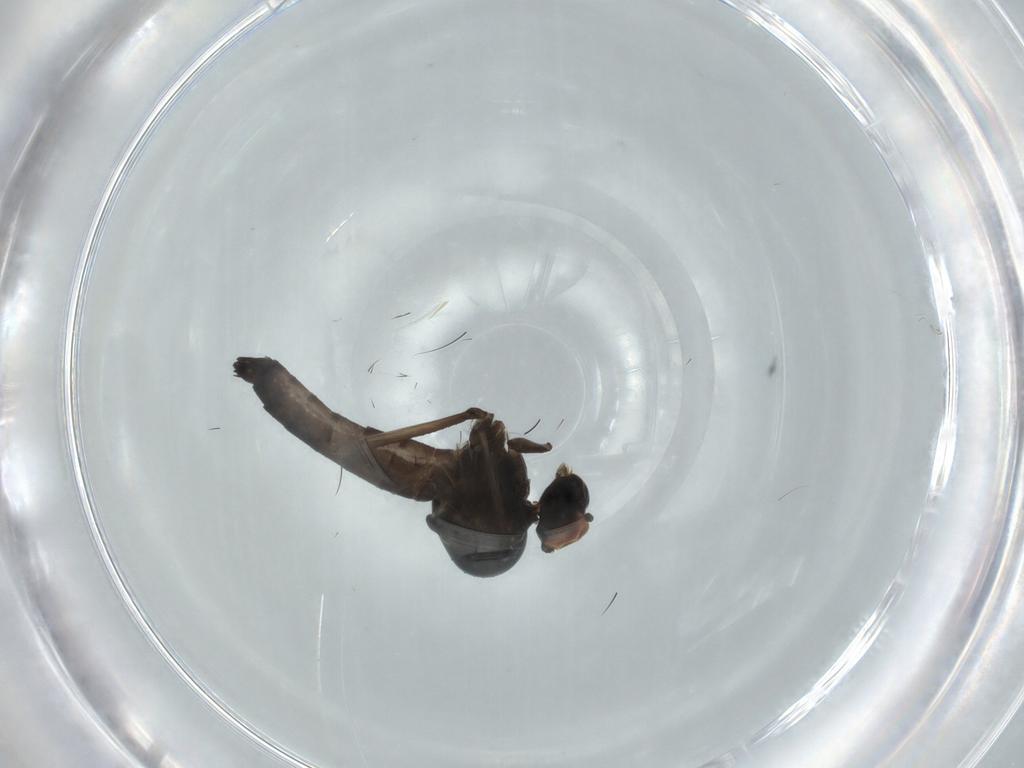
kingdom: Animalia
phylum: Arthropoda
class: Insecta
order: Diptera
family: Hybotidae
